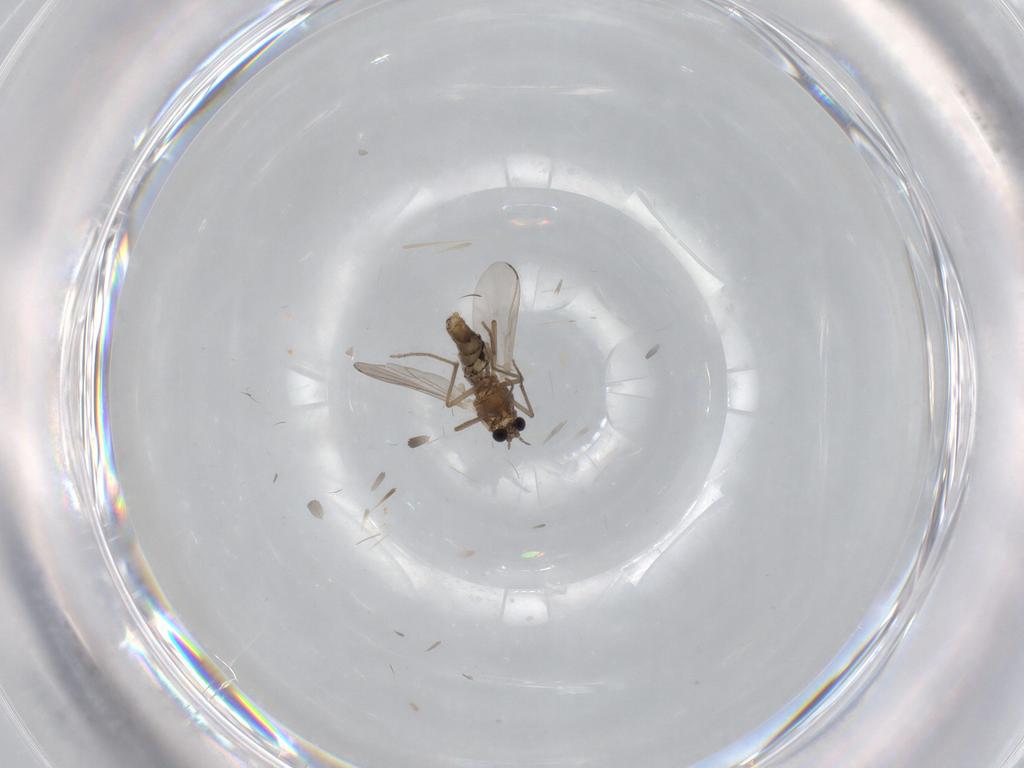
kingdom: Animalia
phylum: Arthropoda
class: Insecta
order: Diptera
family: Chironomidae
